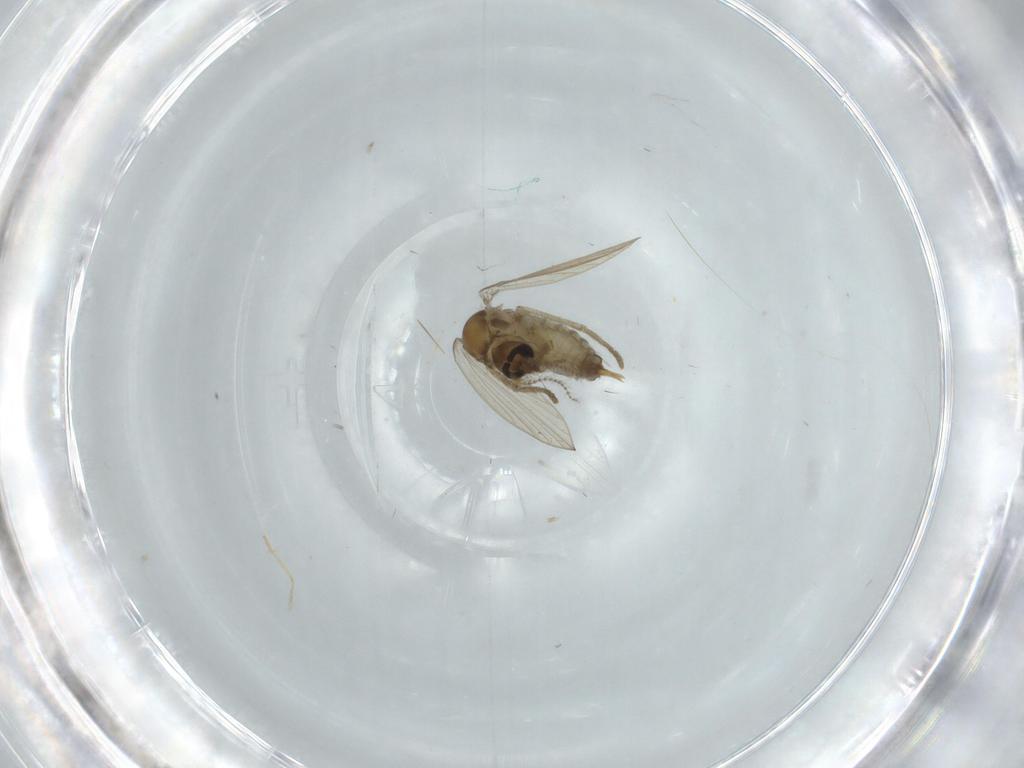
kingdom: Animalia
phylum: Arthropoda
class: Insecta
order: Diptera
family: Psychodidae
